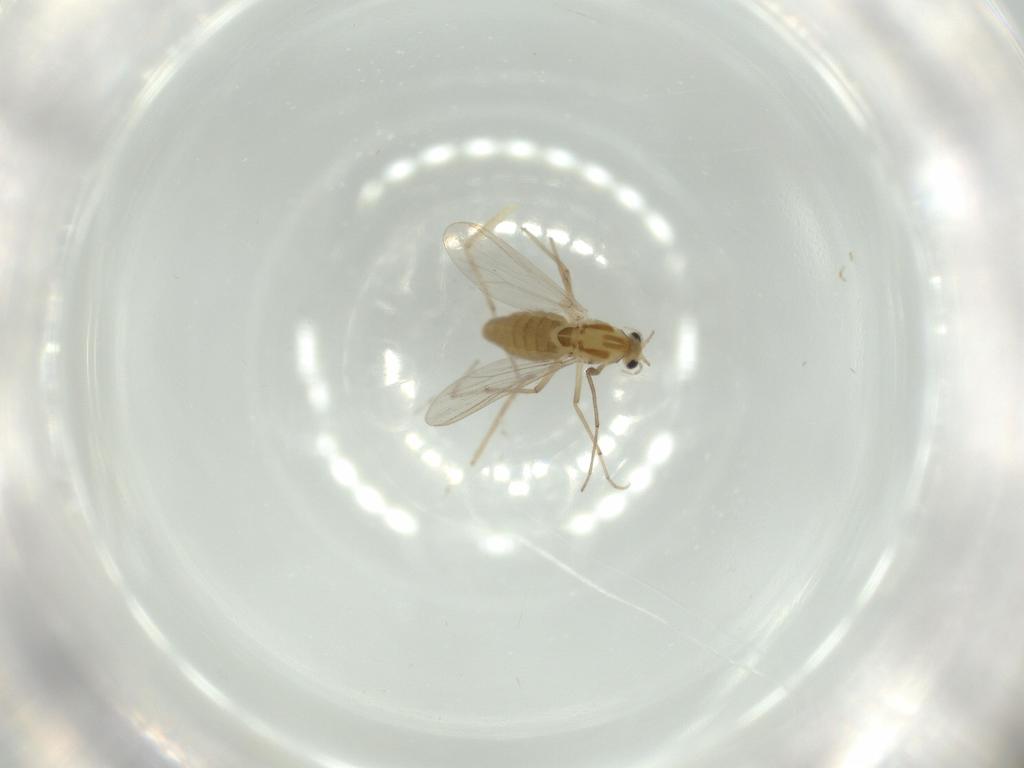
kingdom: Animalia
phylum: Arthropoda
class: Insecta
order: Diptera
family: Chironomidae
